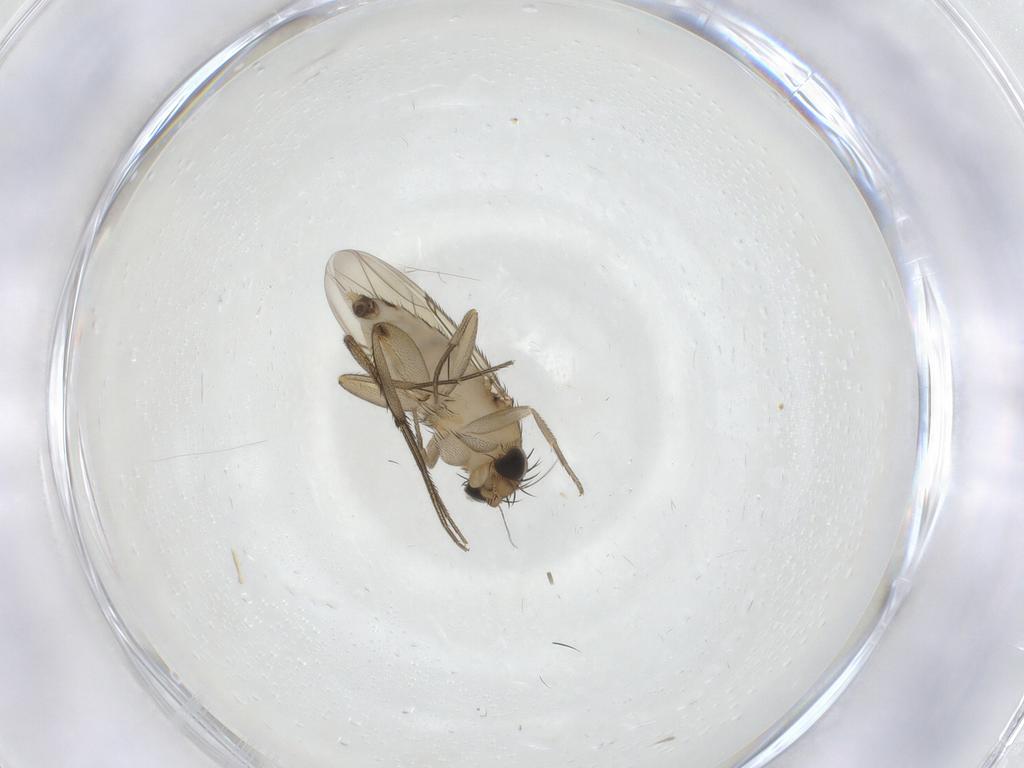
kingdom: Animalia
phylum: Arthropoda
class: Insecta
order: Diptera
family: Phoridae
